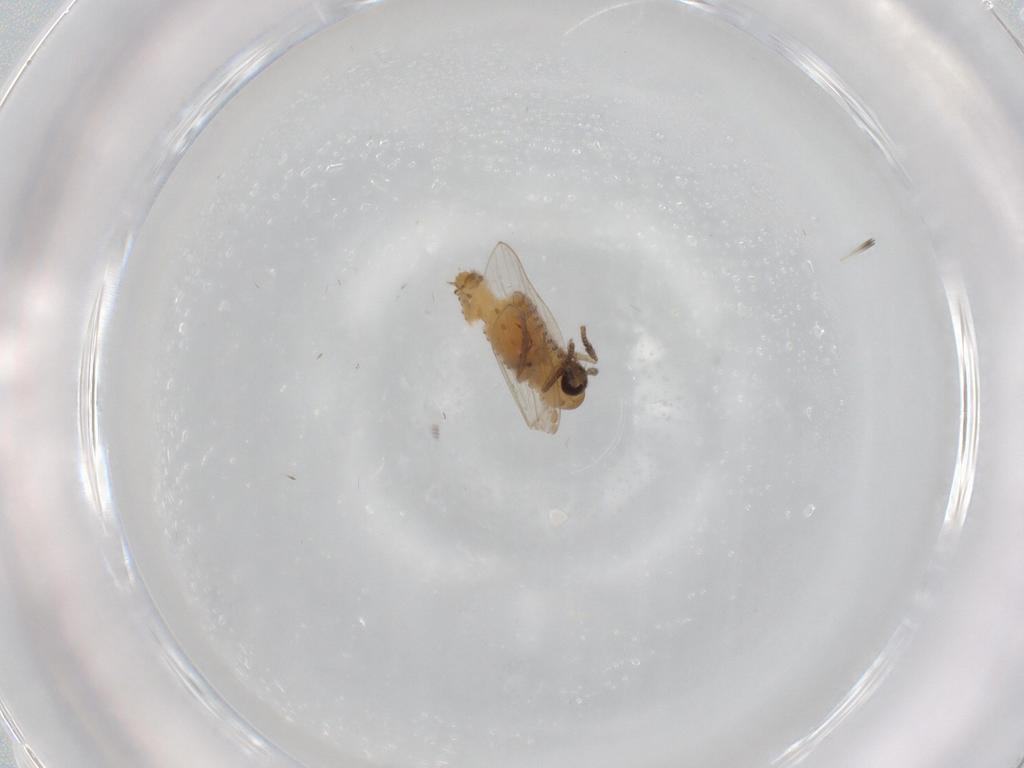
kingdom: Animalia
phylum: Arthropoda
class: Insecta
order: Diptera
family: Psychodidae
